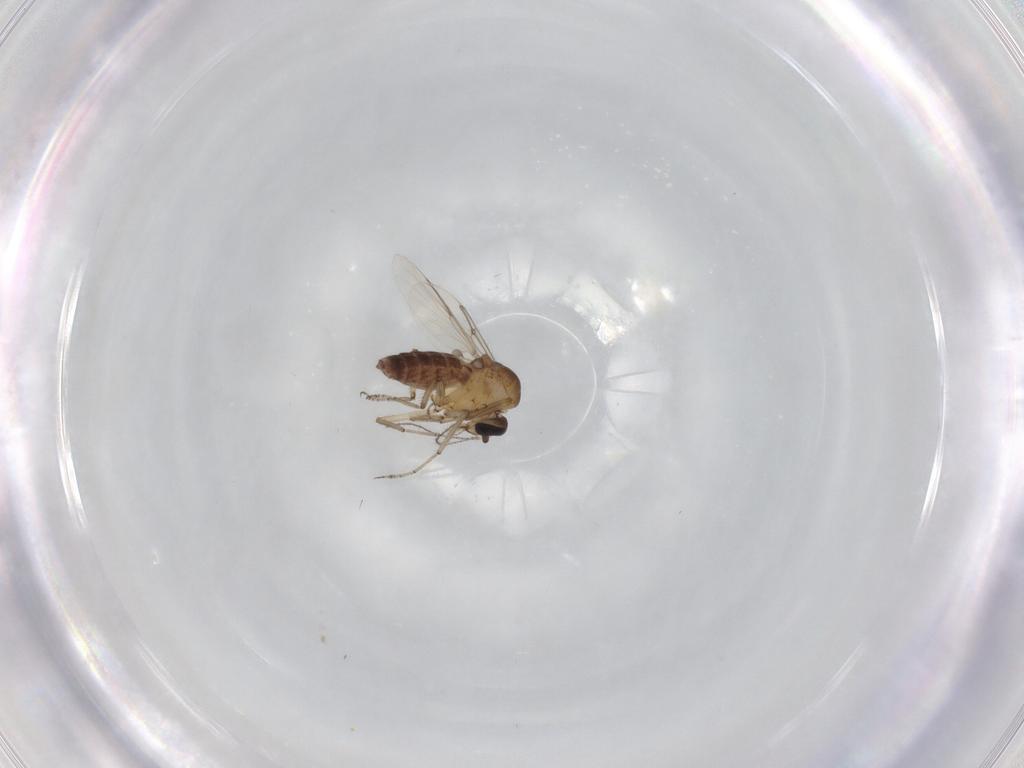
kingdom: Animalia
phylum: Arthropoda
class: Insecta
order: Diptera
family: Ceratopogonidae
